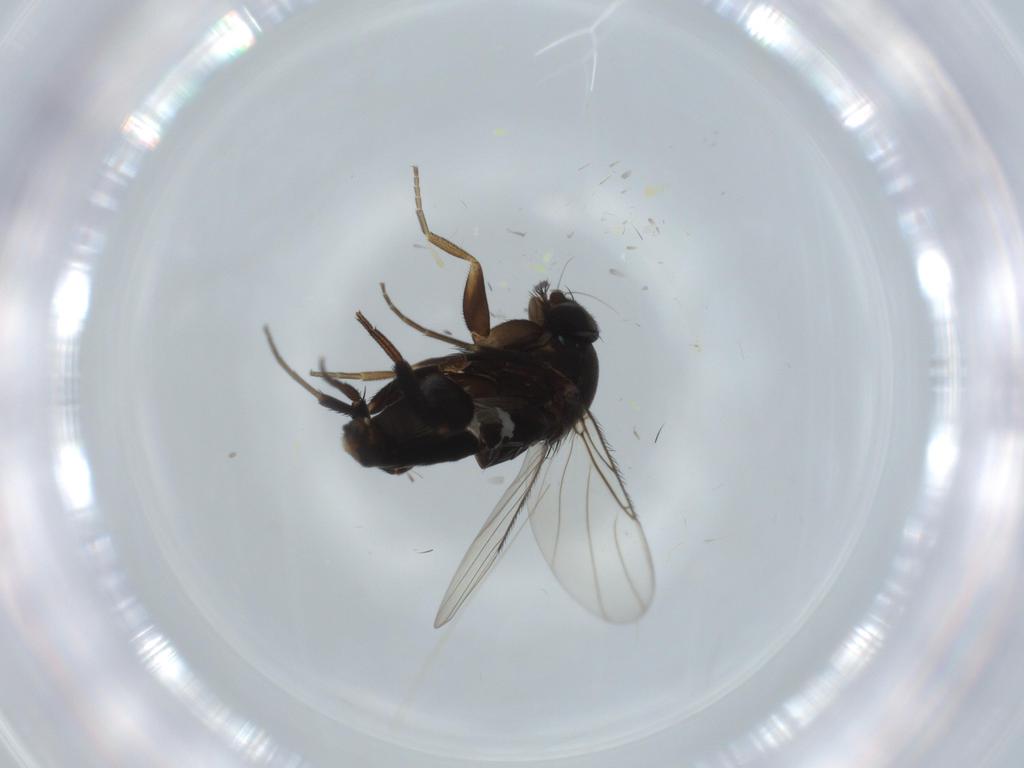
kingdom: Animalia
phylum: Arthropoda
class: Insecta
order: Diptera
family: Phoridae
